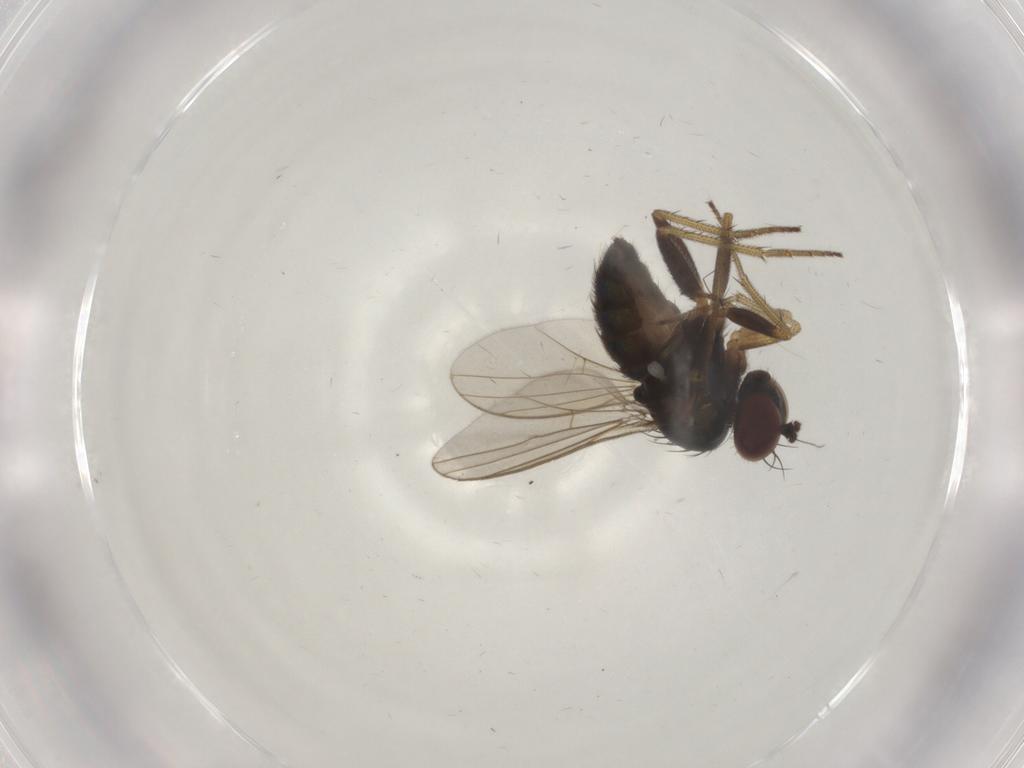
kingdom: Animalia
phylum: Arthropoda
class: Insecta
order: Diptera
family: Dolichopodidae
